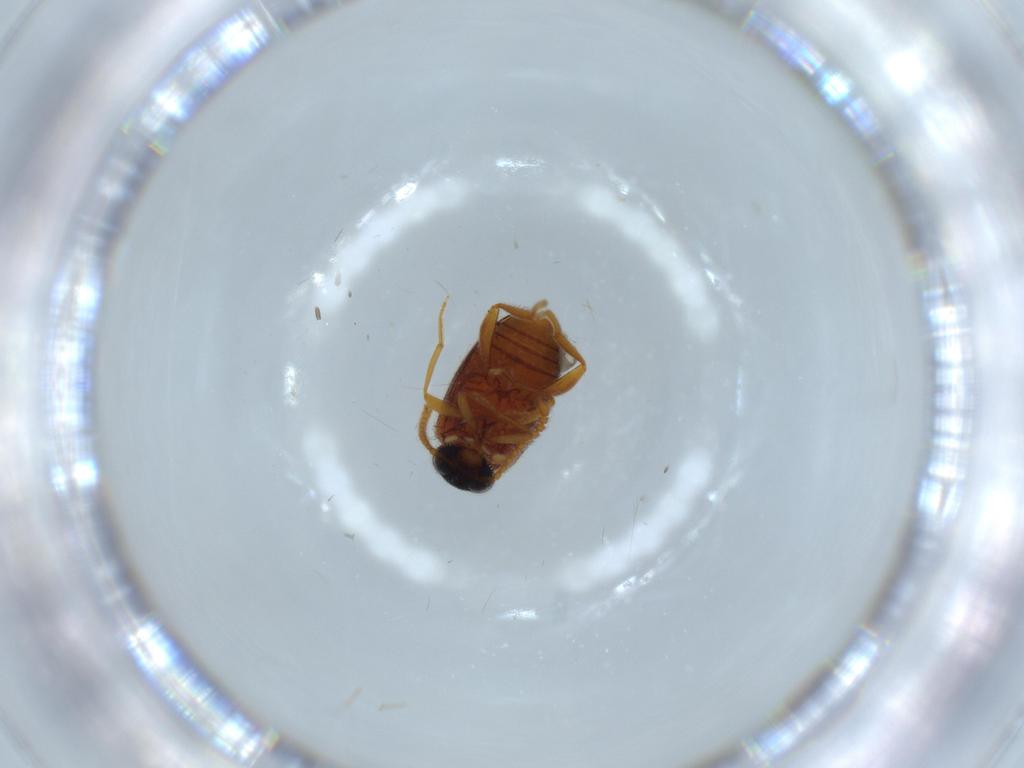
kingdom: Animalia
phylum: Arthropoda
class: Insecta
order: Coleoptera
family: Aderidae
